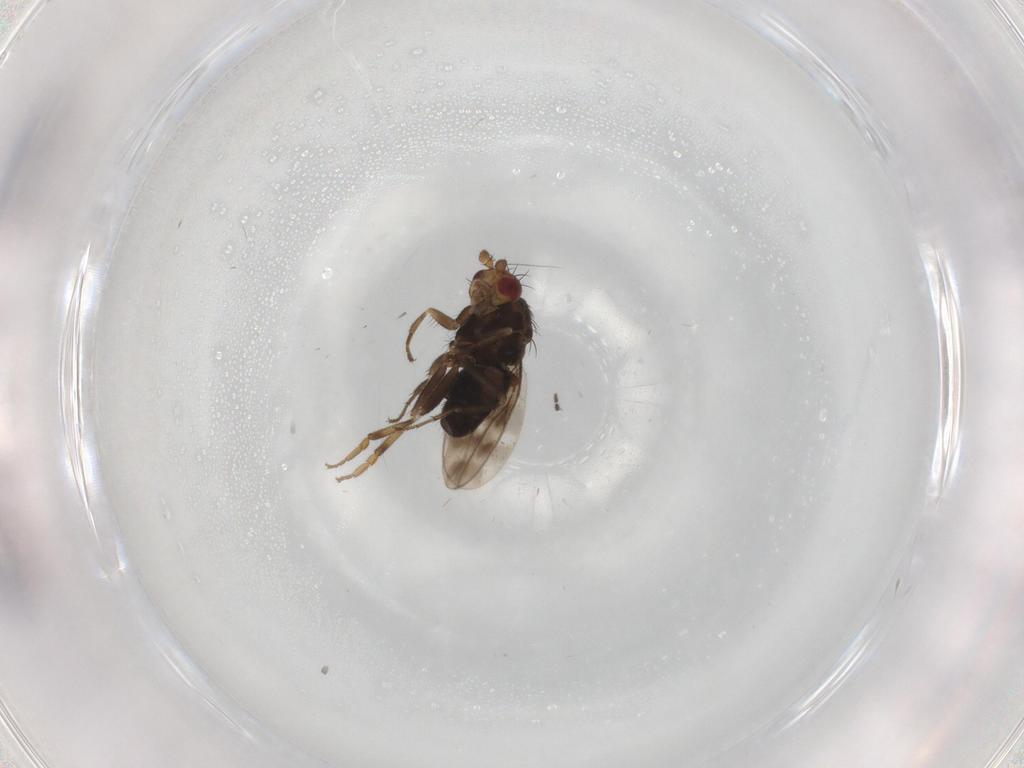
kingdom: Animalia
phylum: Arthropoda
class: Insecta
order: Diptera
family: Sphaeroceridae
